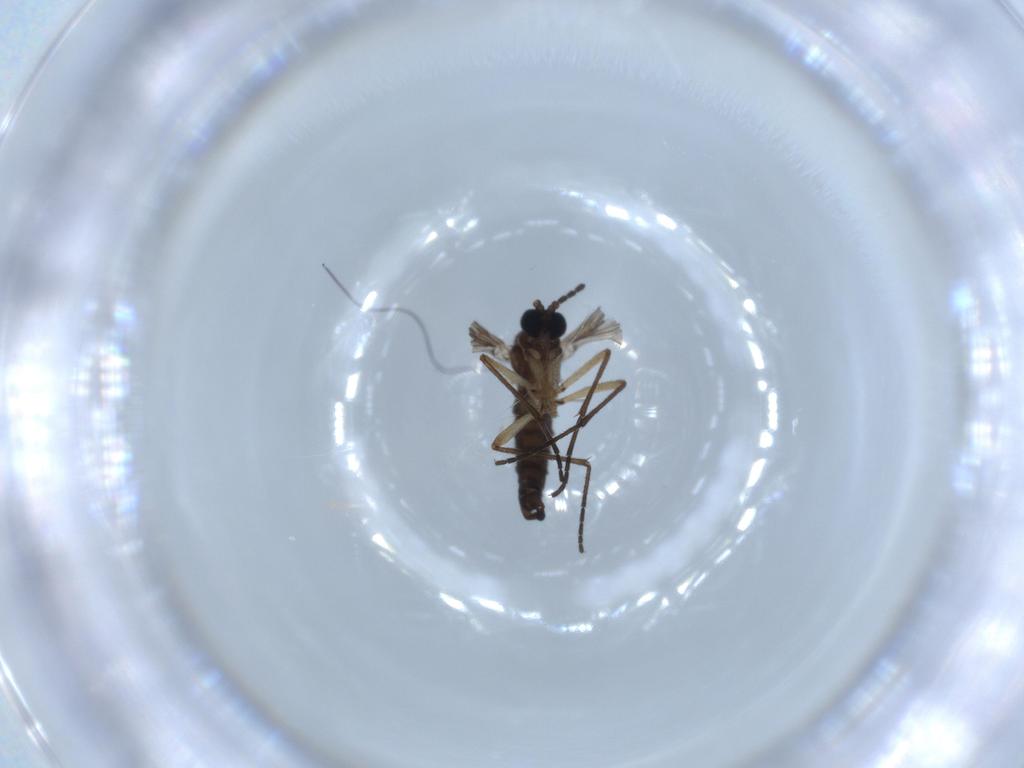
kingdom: Animalia
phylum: Arthropoda
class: Insecta
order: Diptera
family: Sciaridae
